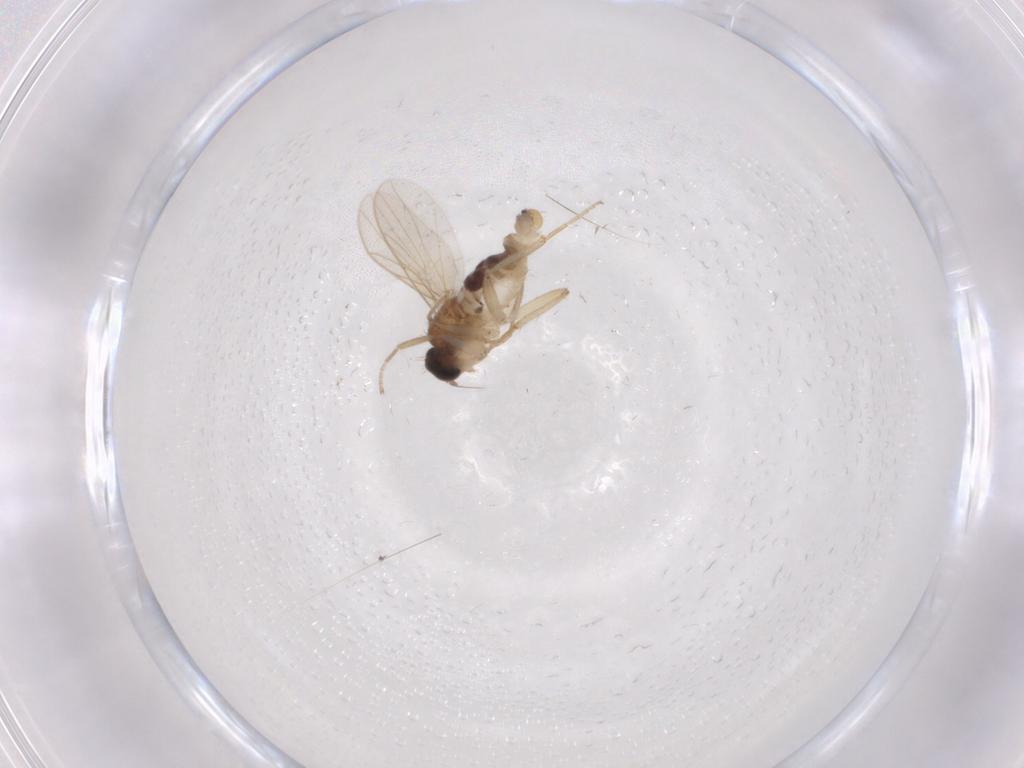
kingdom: Animalia
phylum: Arthropoda
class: Insecta
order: Diptera
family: Hybotidae
